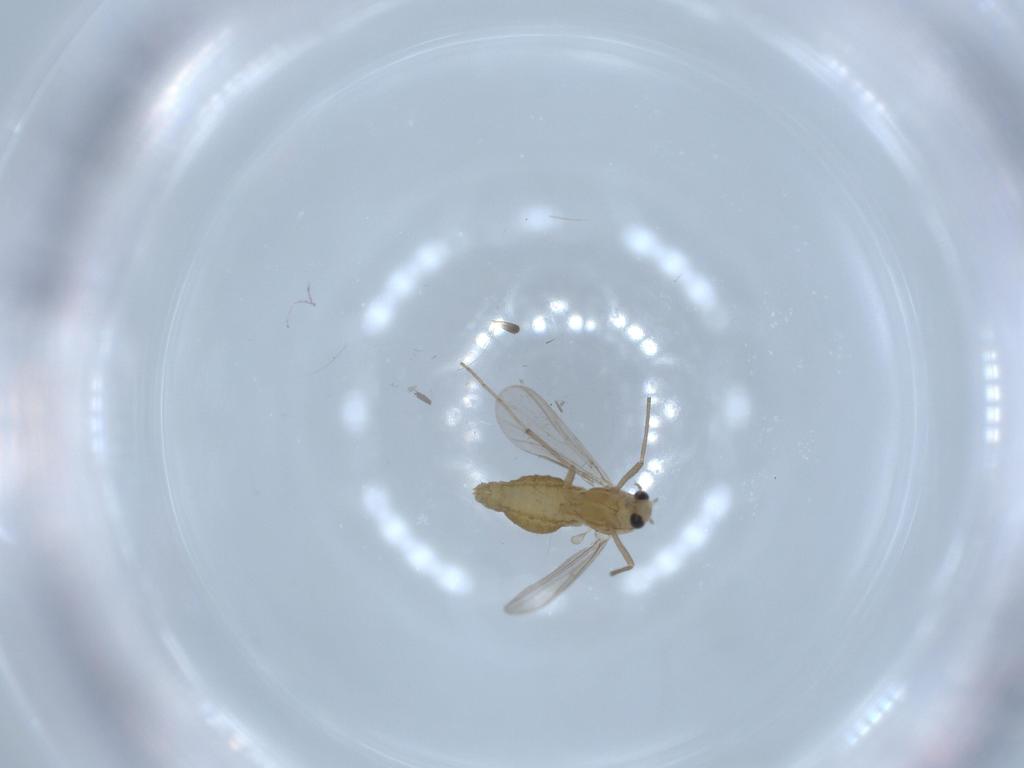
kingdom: Animalia
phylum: Arthropoda
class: Insecta
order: Diptera
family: Chironomidae
